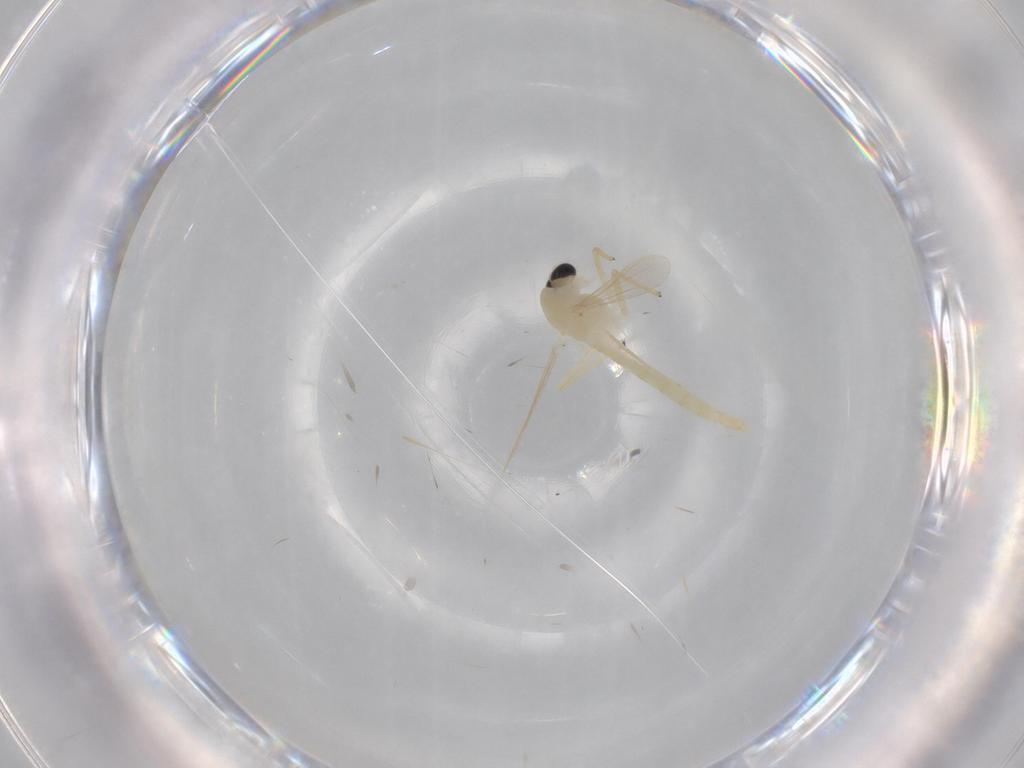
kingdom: Animalia
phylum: Arthropoda
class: Insecta
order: Diptera
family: Chironomidae
